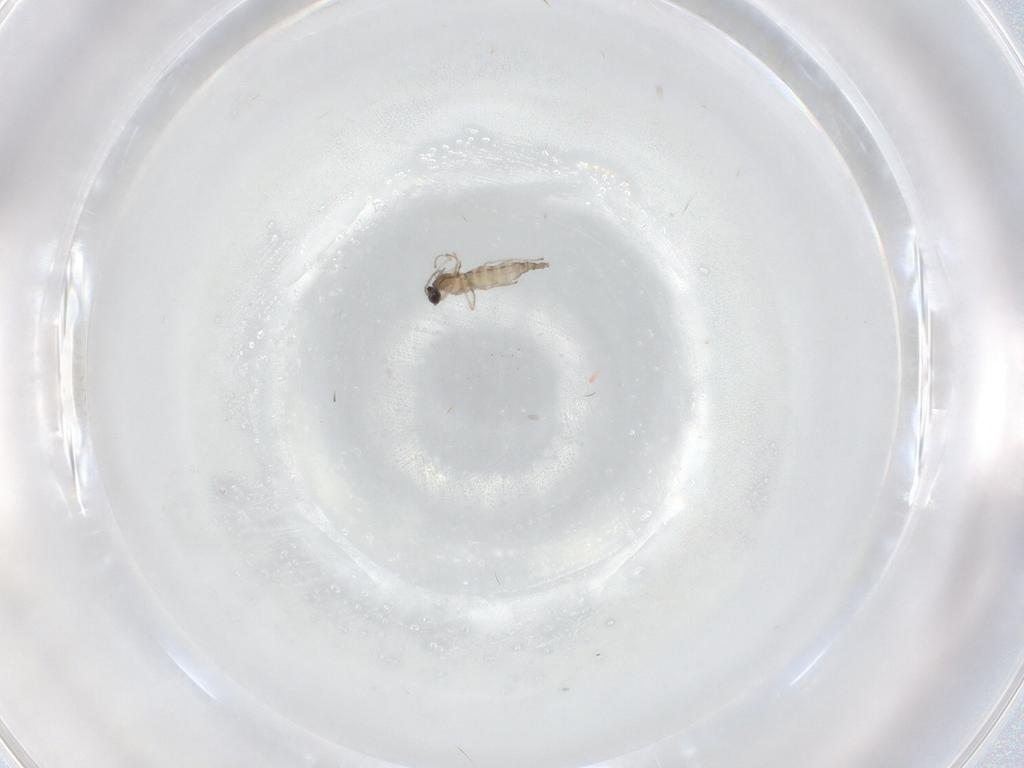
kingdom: Animalia
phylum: Arthropoda
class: Insecta
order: Diptera
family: Cecidomyiidae
